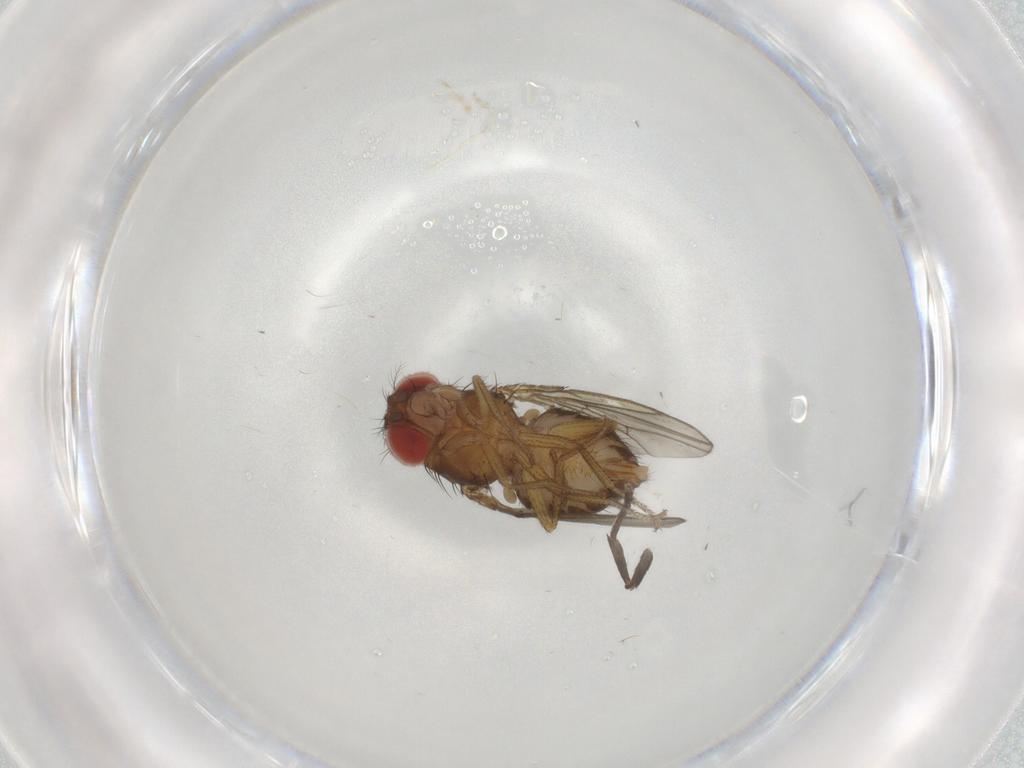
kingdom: Animalia
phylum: Arthropoda
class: Insecta
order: Diptera
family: Drosophilidae
